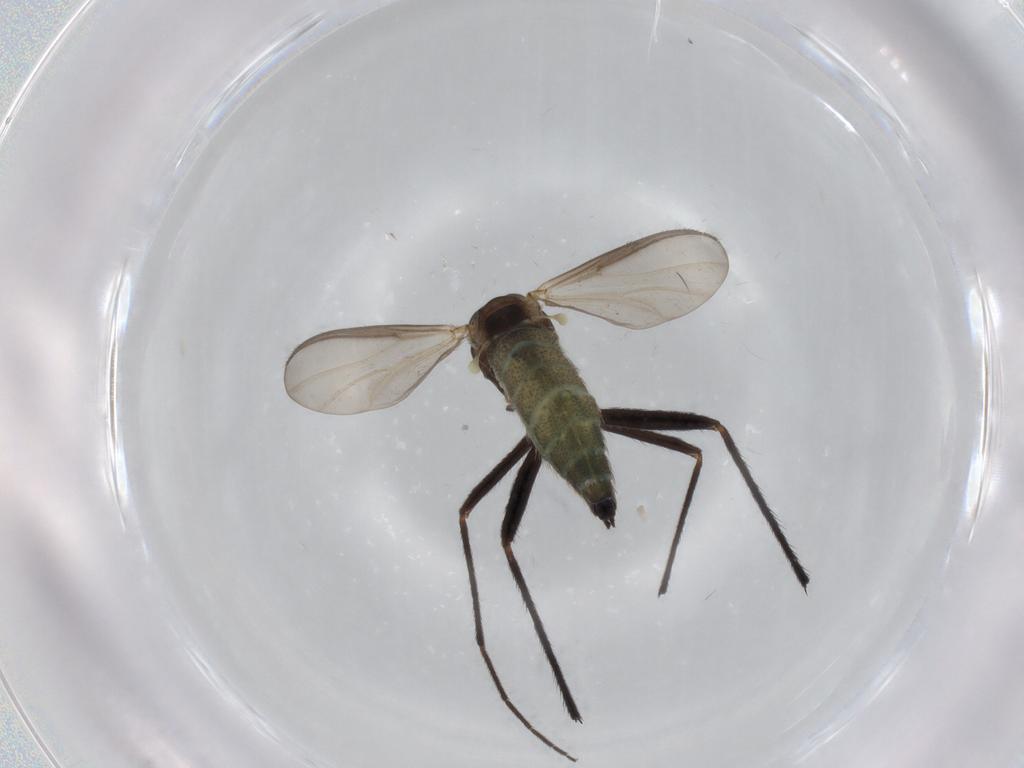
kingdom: Animalia
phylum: Arthropoda
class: Insecta
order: Diptera
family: Chironomidae
